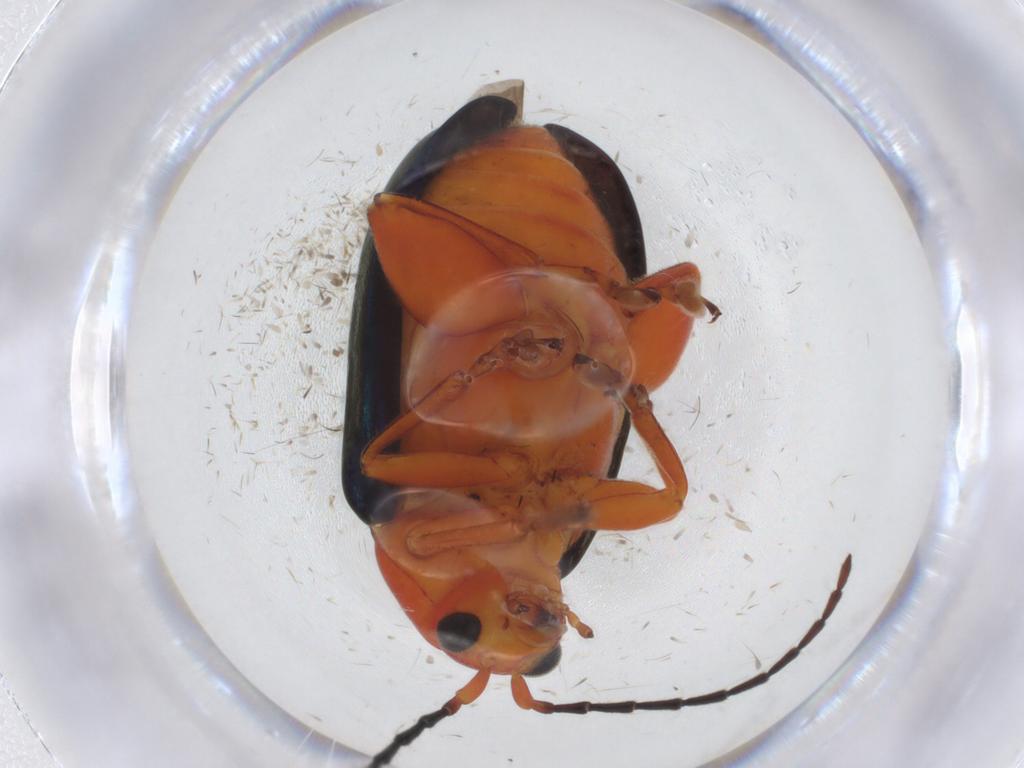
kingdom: Animalia
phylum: Arthropoda
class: Insecta
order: Coleoptera
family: Chrysomelidae
